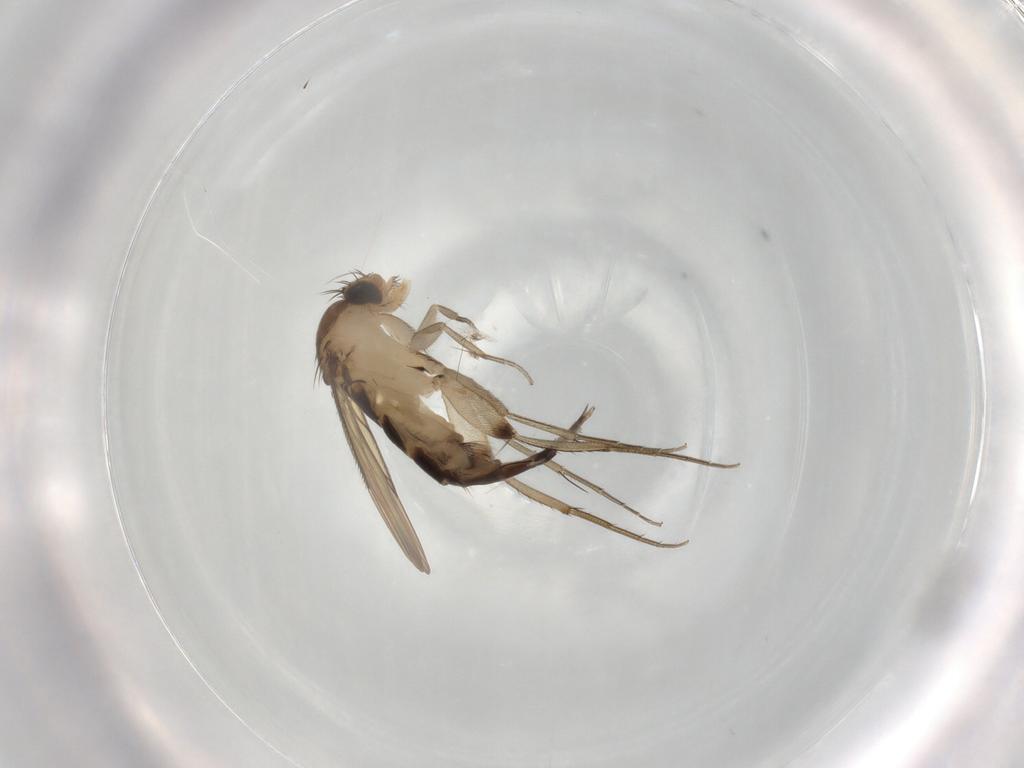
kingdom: Animalia
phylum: Arthropoda
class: Insecta
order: Diptera
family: Phoridae
